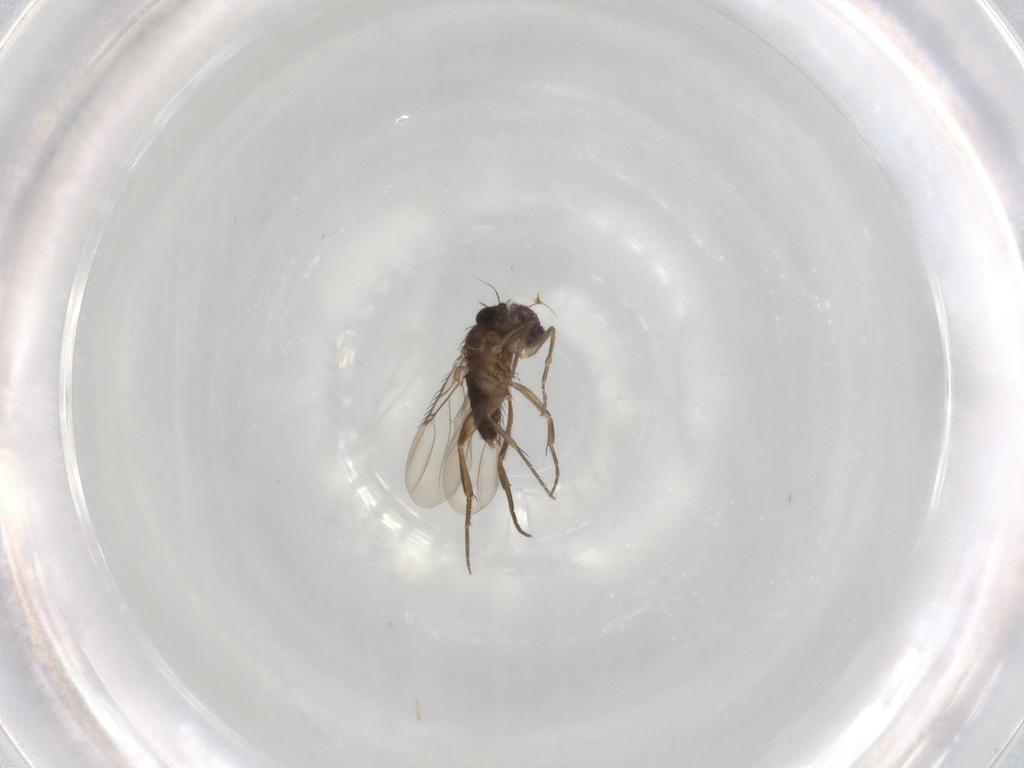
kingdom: Animalia
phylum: Arthropoda
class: Insecta
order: Diptera
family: Phoridae
